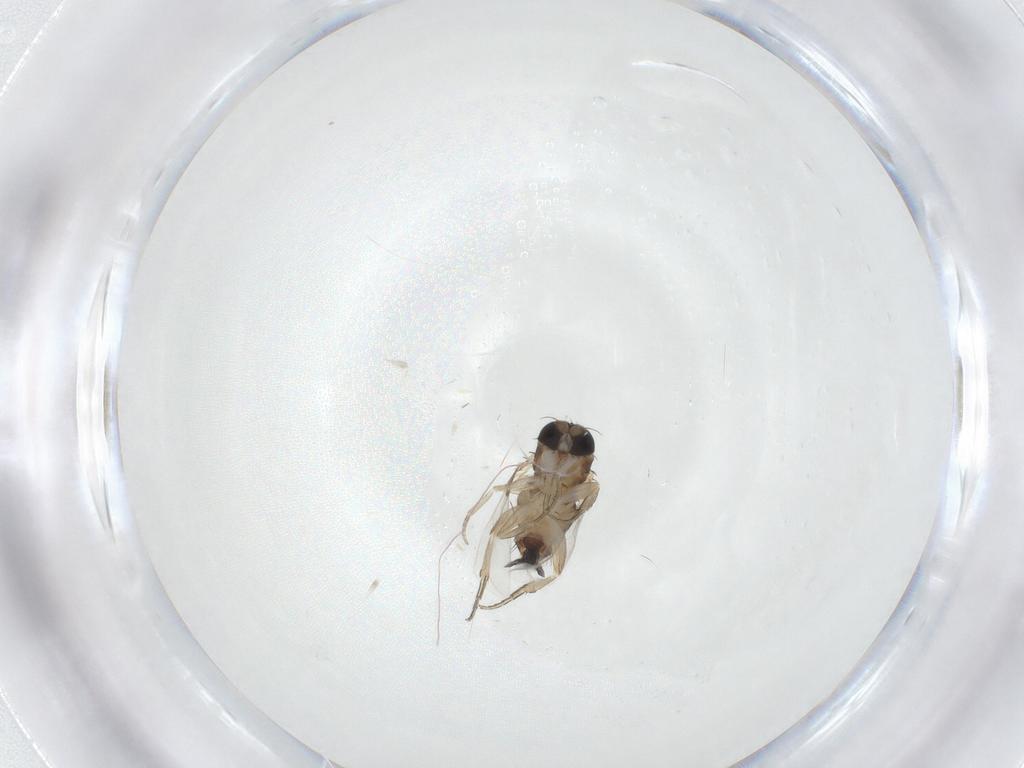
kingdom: Animalia
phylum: Arthropoda
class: Insecta
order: Diptera
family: Phoridae
